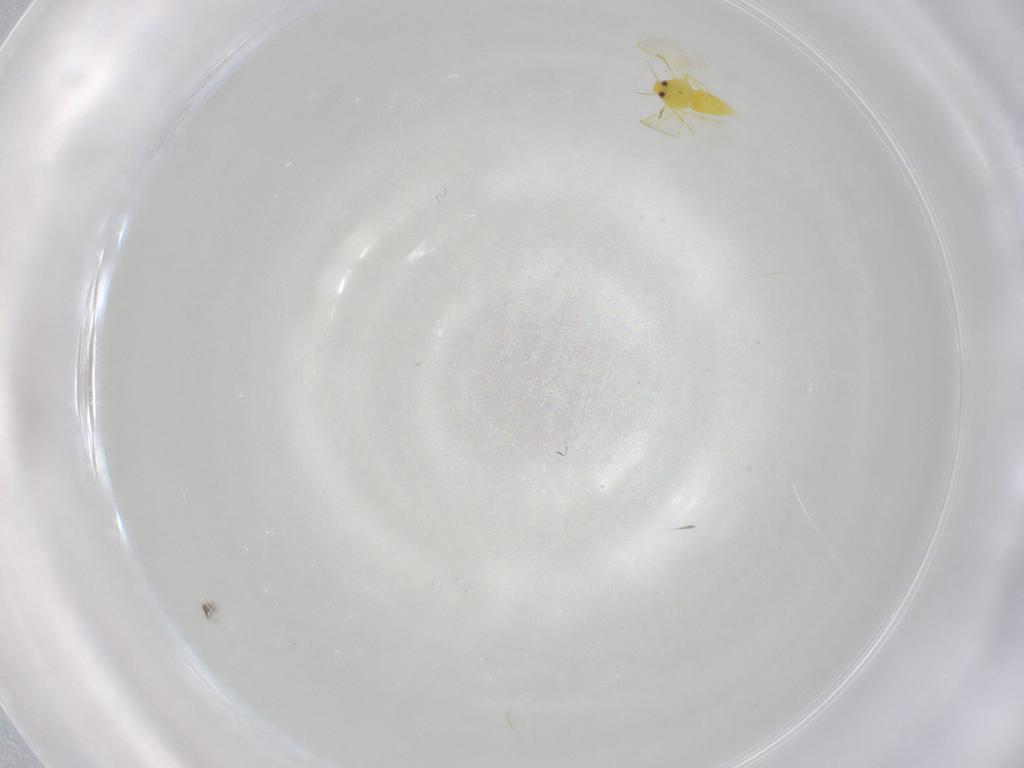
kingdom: Animalia
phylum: Arthropoda
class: Insecta
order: Hemiptera
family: Aleyrodidae
